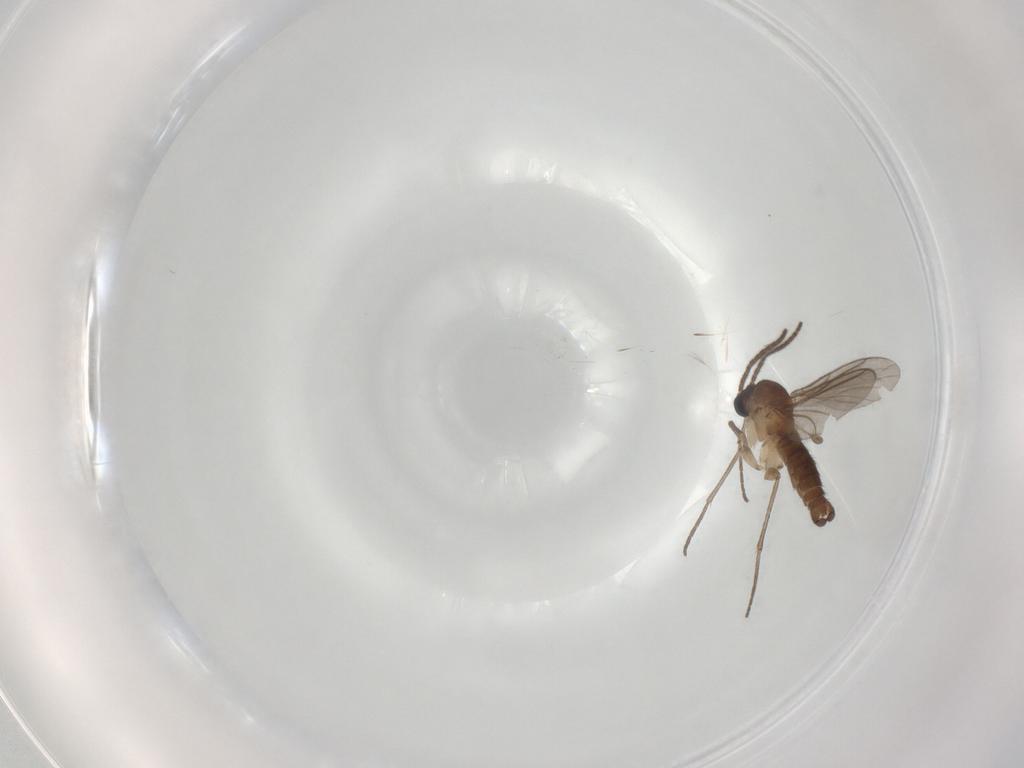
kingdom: Animalia
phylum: Arthropoda
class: Insecta
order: Diptera
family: Sciaridae
